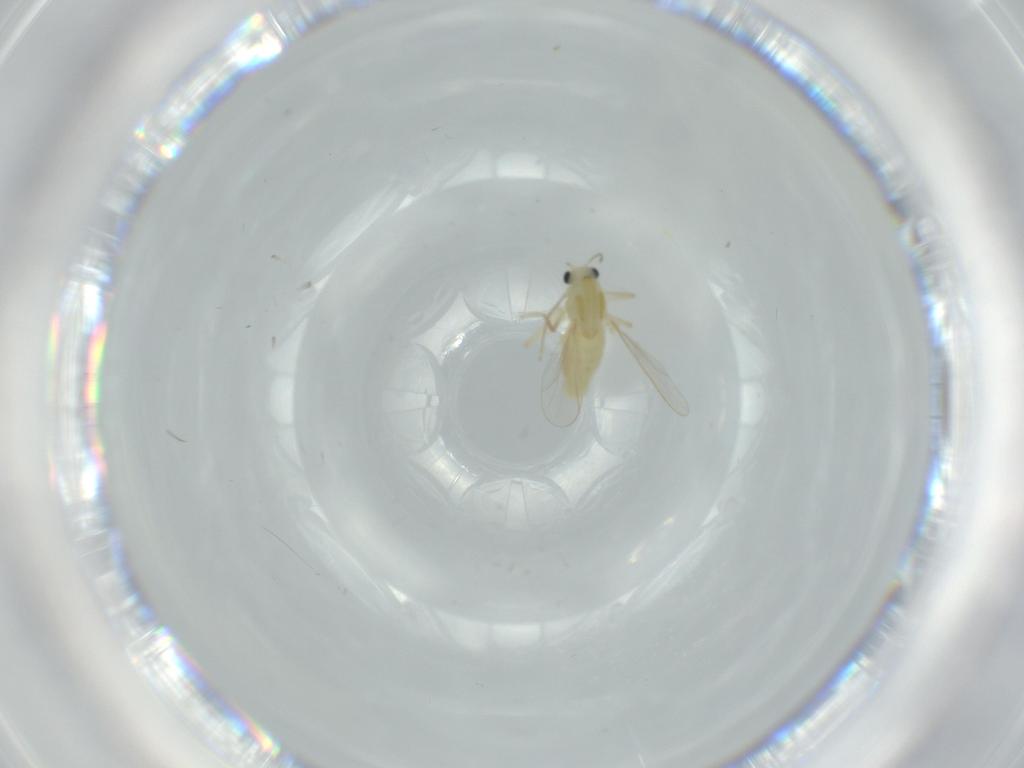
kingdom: Animalia
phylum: Arthropoda
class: Insecta
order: Diptera
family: Chironomidae
